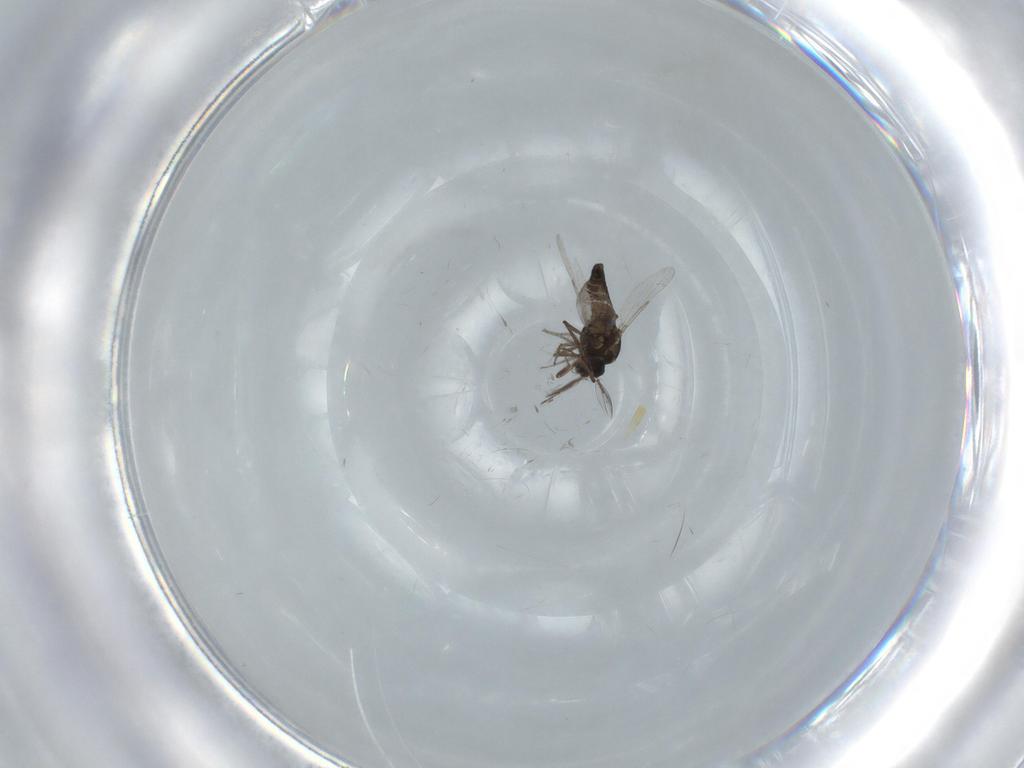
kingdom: Animalia
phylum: Arthropoda
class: Insecta
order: Diptera
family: Ceratopogonidae
